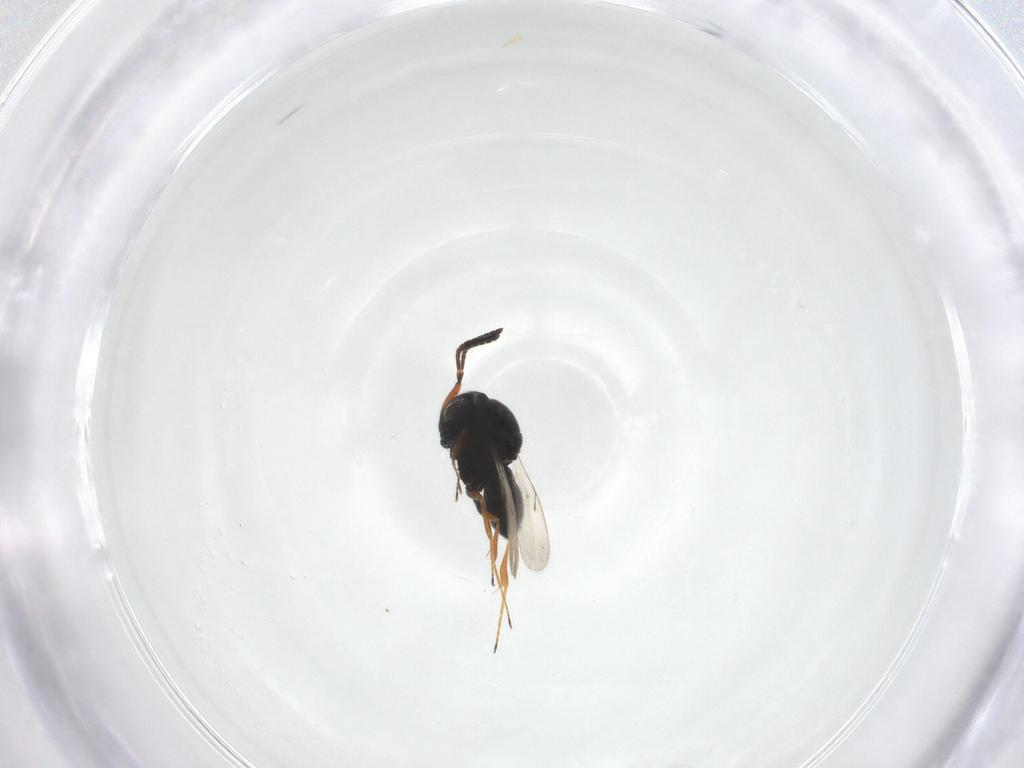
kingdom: Animalia
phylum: Arthropoda
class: Insecta
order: Hymenoptera
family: Scelionidae
